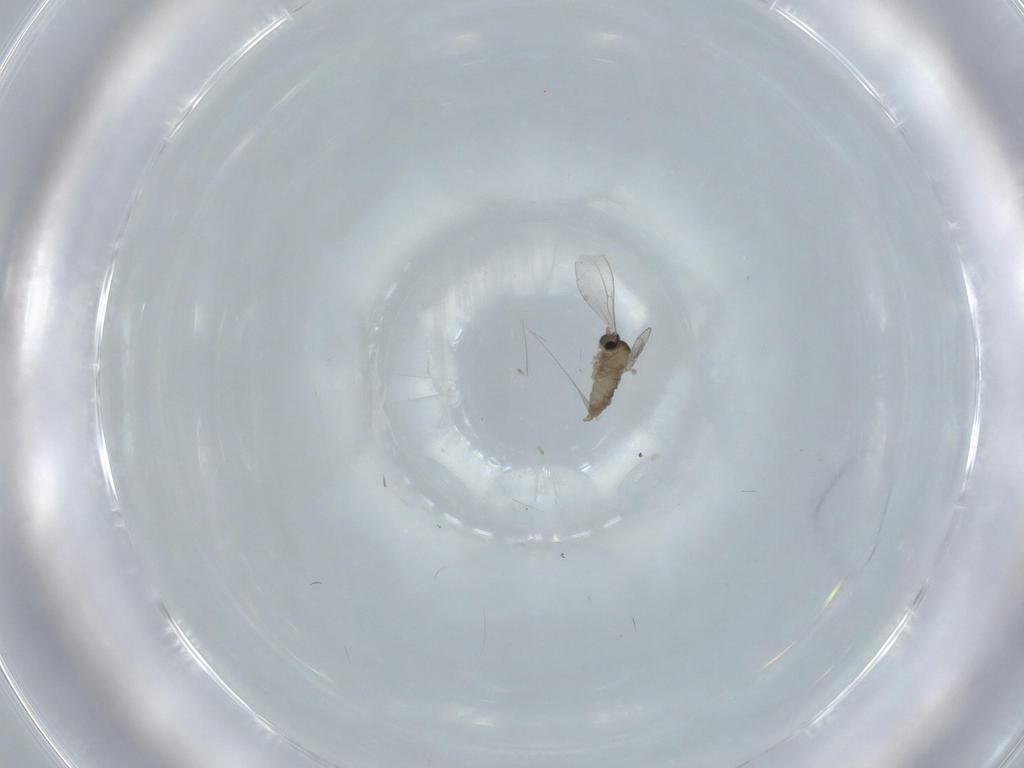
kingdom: Animalia
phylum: Arthropoda
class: Insecta
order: Diptera
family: Cecidomyiidae
